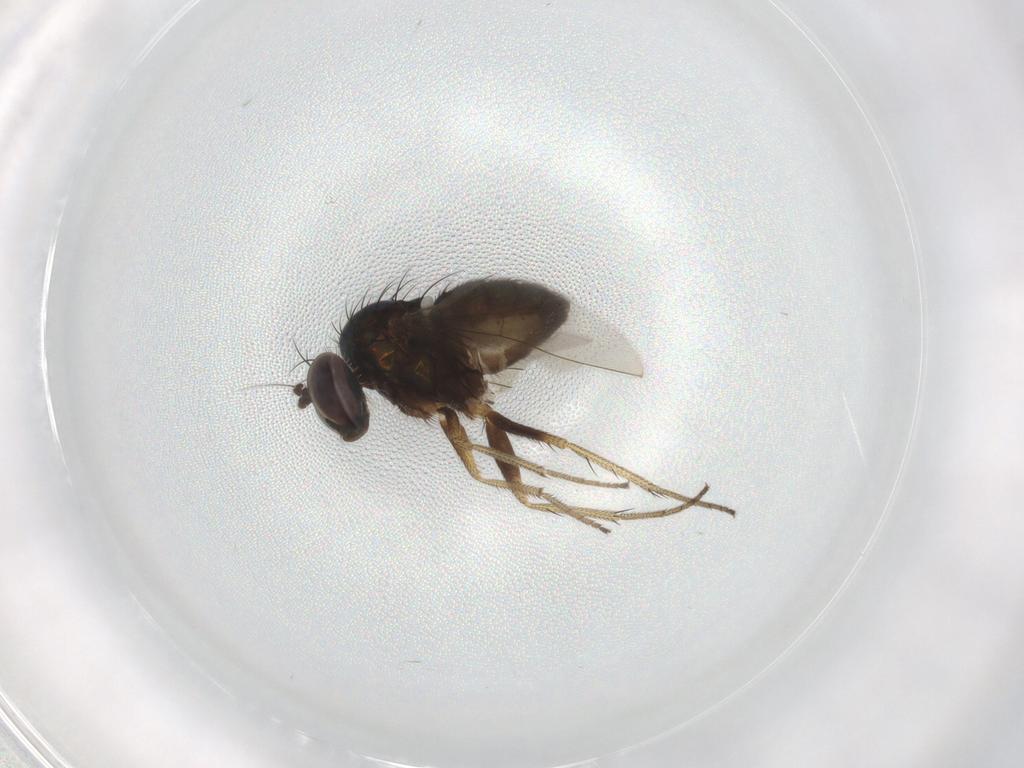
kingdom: Animalia
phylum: Arthropoda
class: Insecta
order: Diptera
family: Dolichopodidae
